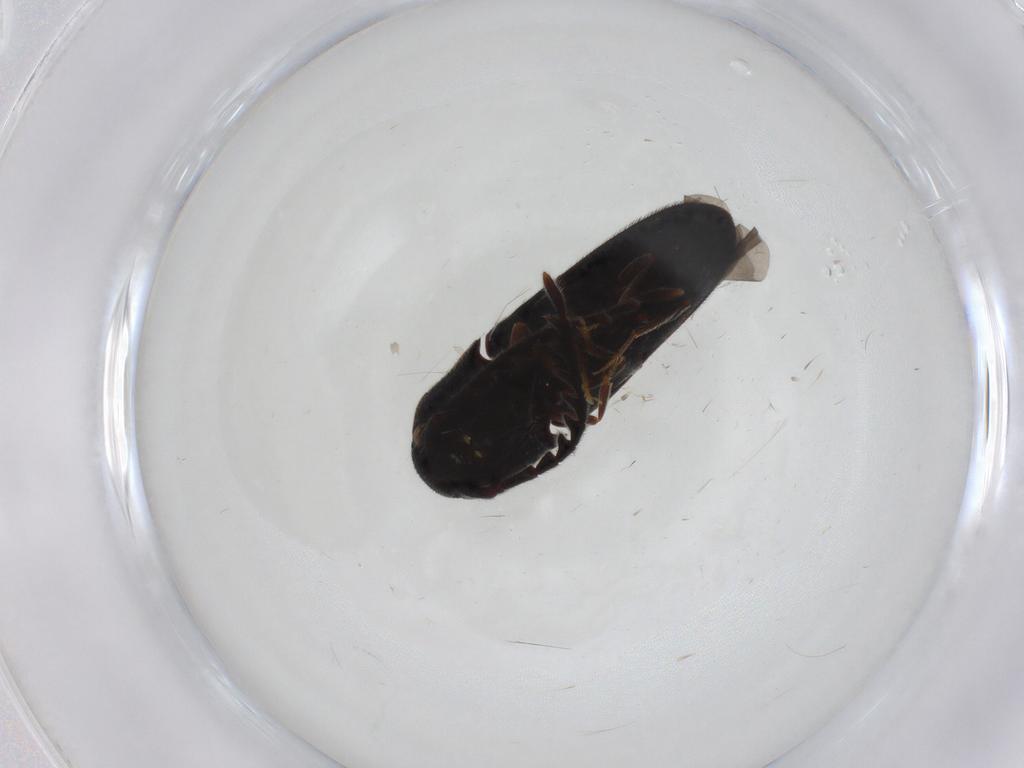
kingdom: Animalia
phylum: Arthropoda
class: Insecta
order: Coleoptera
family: Eucnemidae
